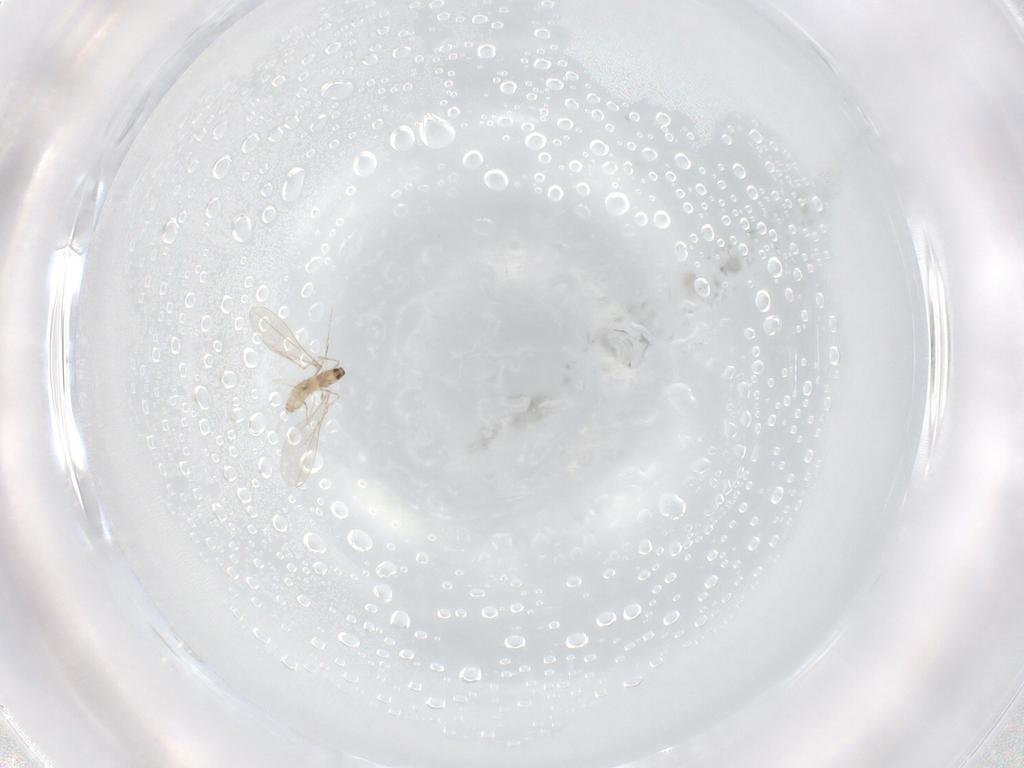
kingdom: Animalia
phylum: Arthropoda
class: Insecta
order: Diptera
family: Cecidomyiidae
